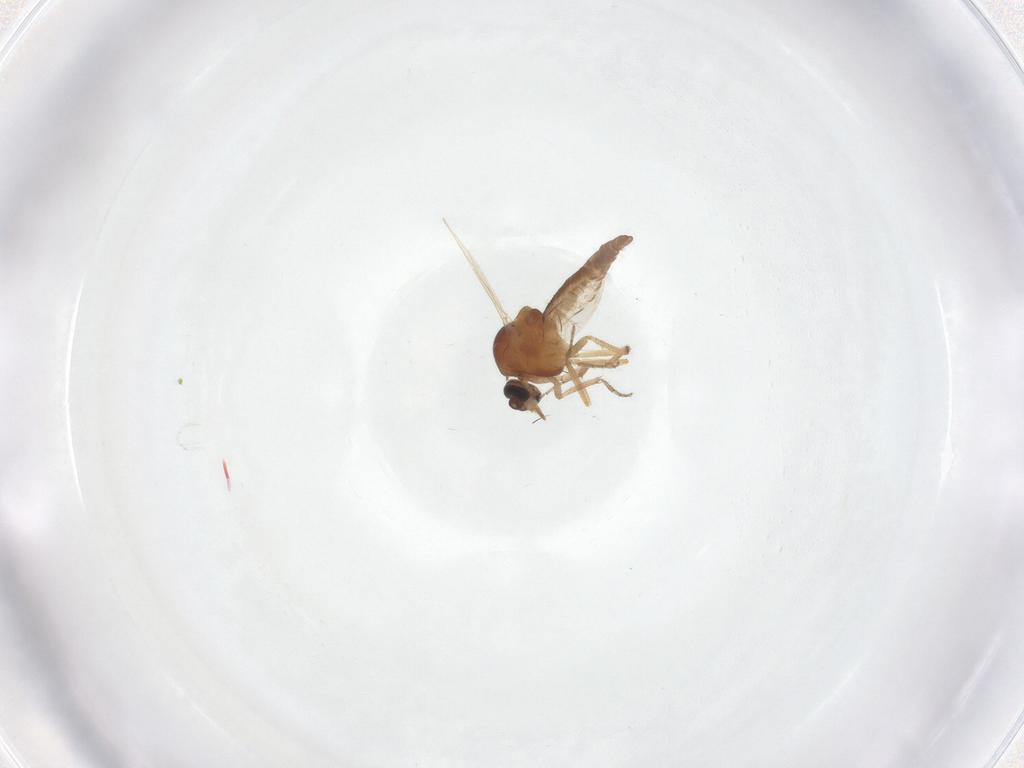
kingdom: Animalia
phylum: Arthropoda
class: Insecta
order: Diptera
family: Ceratopogonidae
